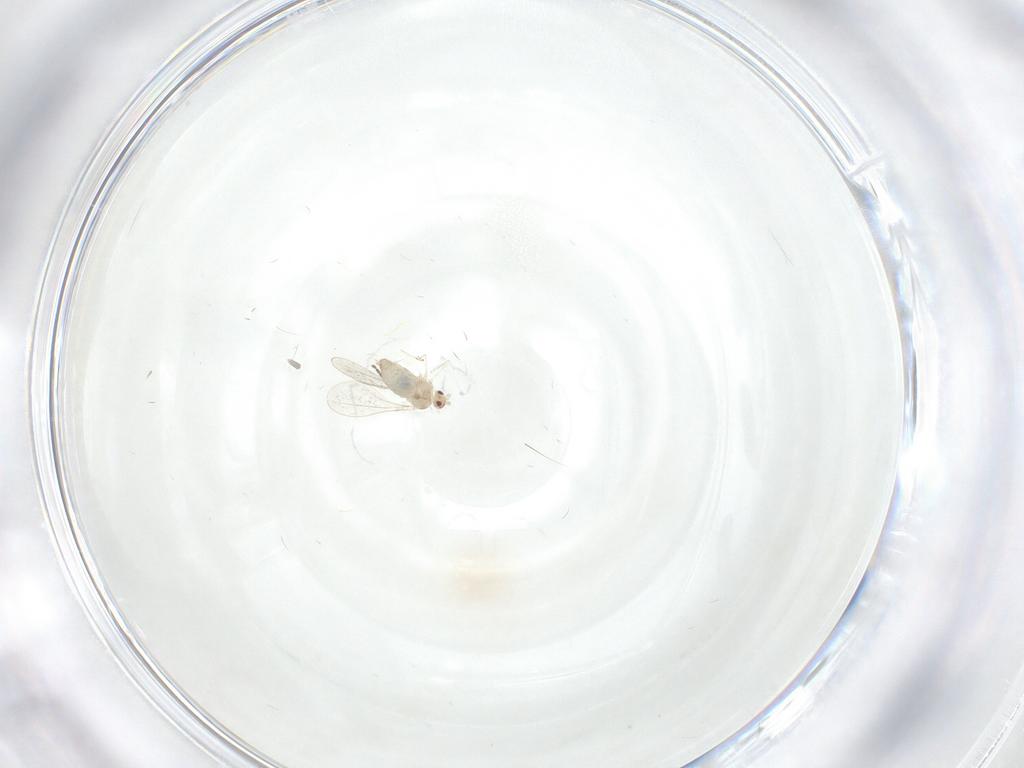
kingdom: Animalia
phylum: Arthropoda
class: Insecta
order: Diptera
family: Cecidomyiidae
